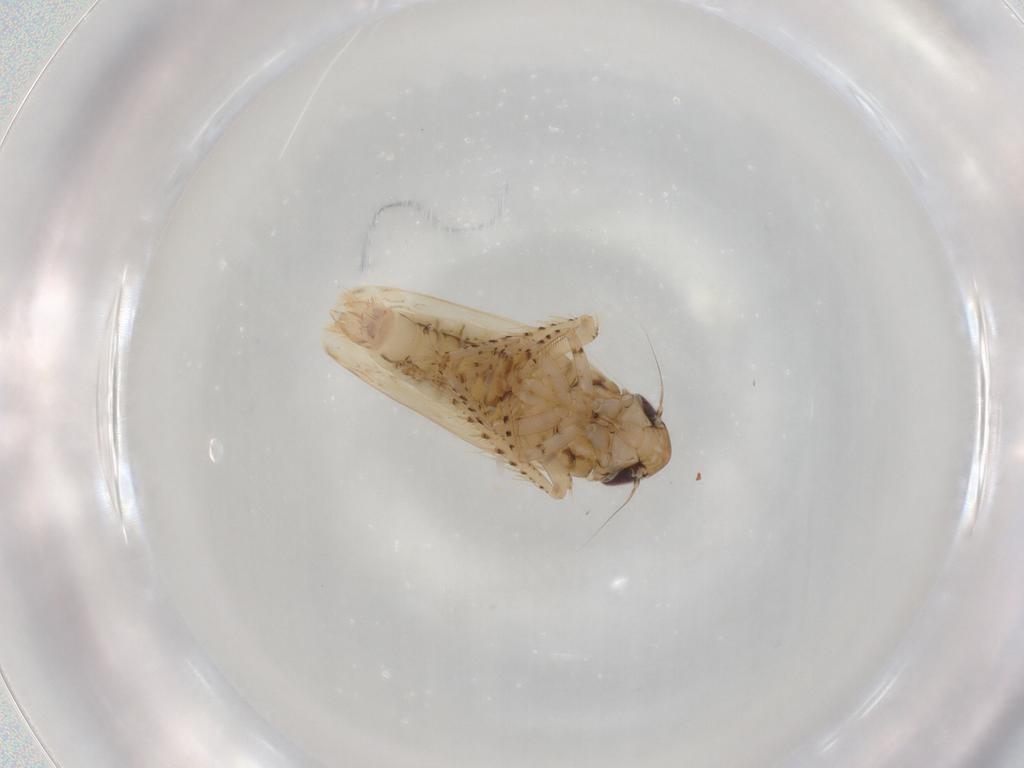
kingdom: Animalia
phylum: Arthropoda
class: Insecta
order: Hemiptera
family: Cicadellidae
